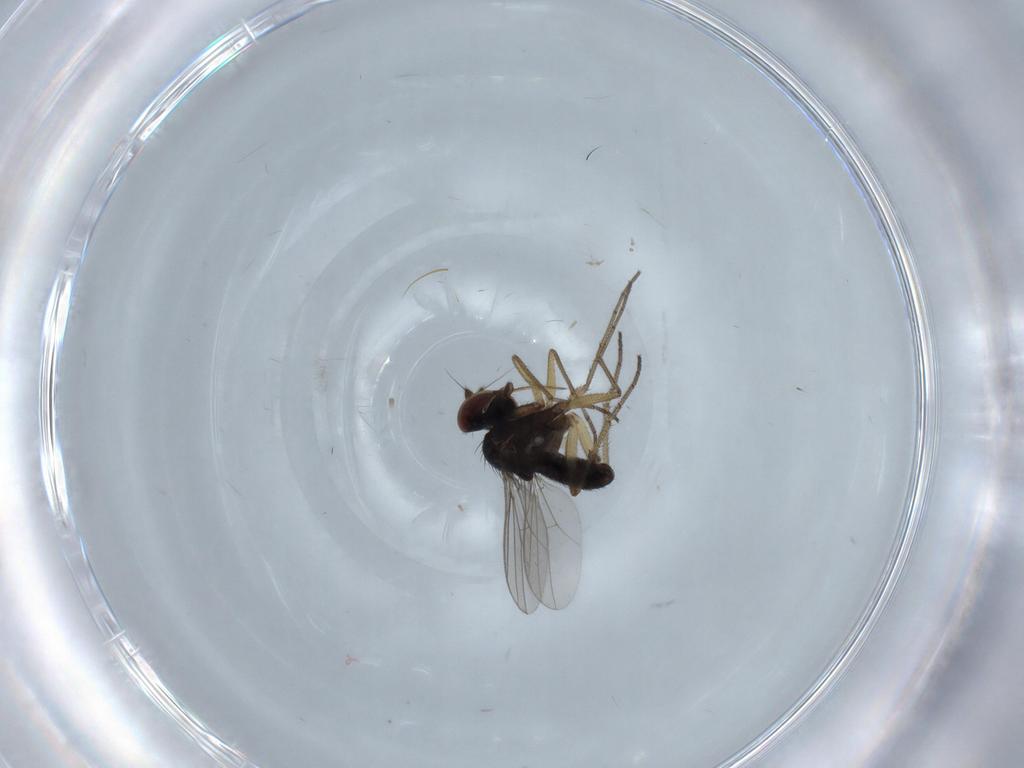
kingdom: Animalia
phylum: Arthropoda
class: Insecta
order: Diptera
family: Dolichopodidae
